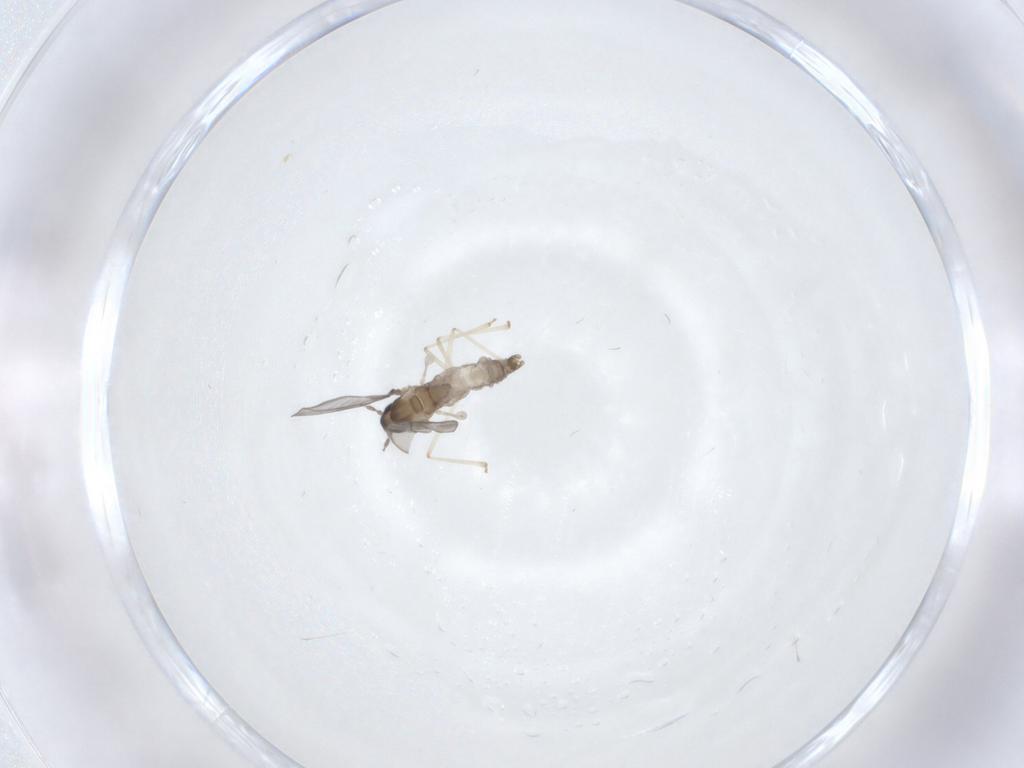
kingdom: Animalia
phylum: Arthropoda
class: Insecta
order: Diptera
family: Cecidomyiidae
